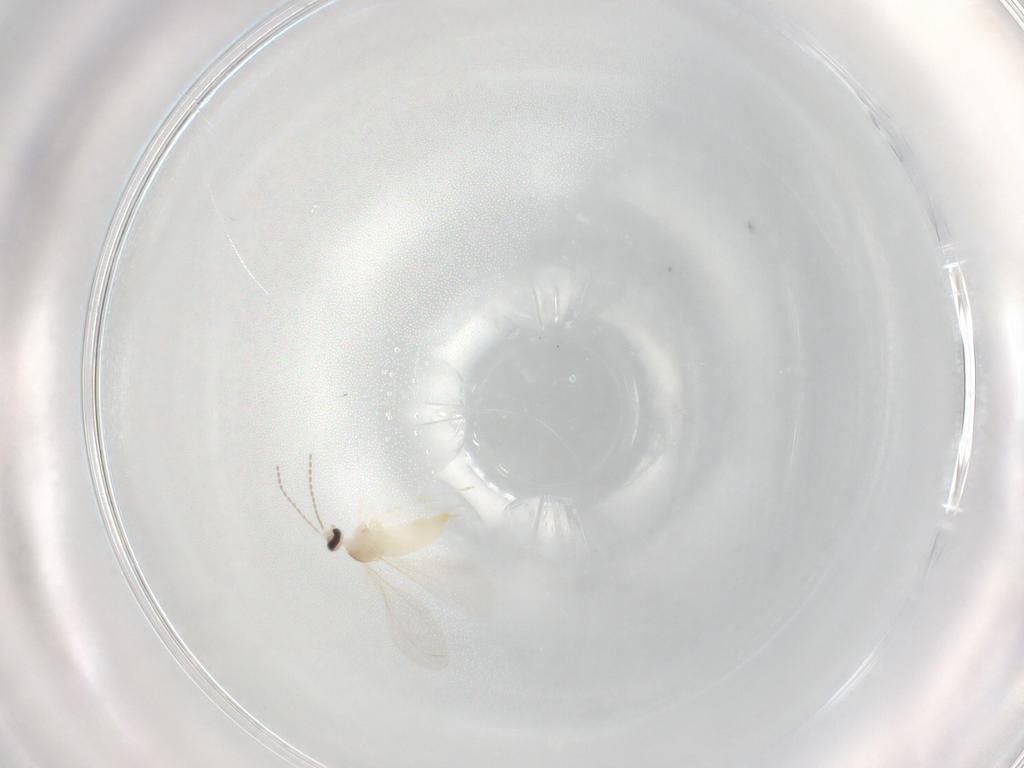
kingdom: Animalia
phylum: Arthropoda
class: Insecta
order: Diptera
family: Cecidomyiidae
